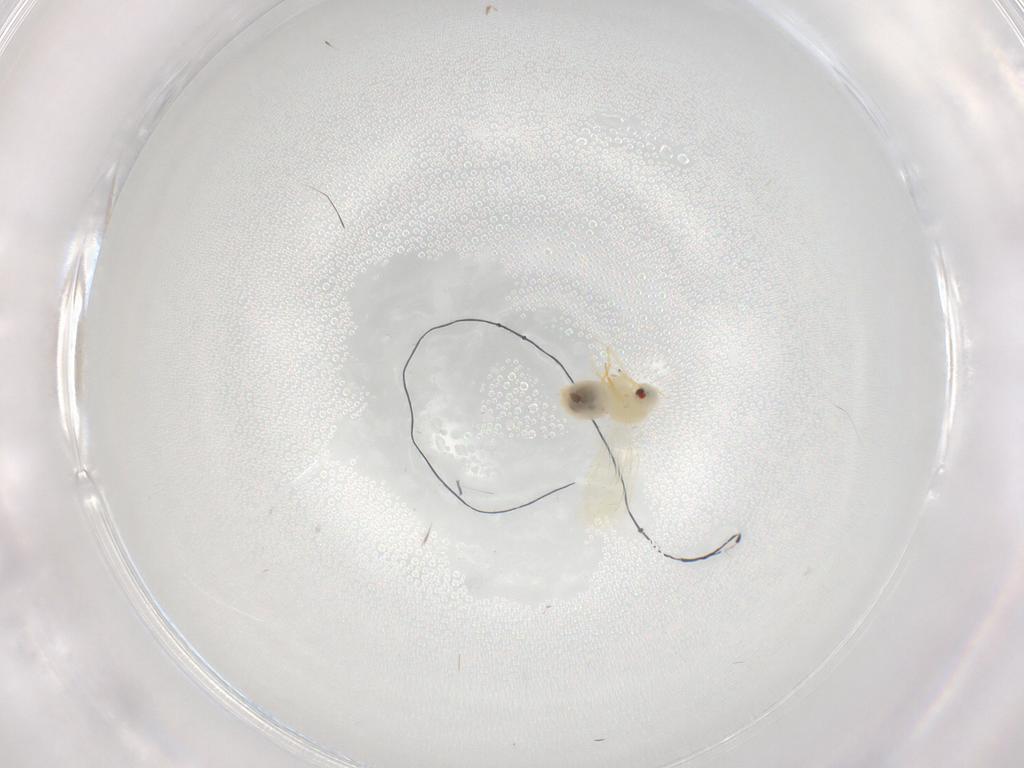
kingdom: Animalia
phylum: Arthropoda
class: Insecta
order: Hemiptera
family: Aleyrodidae
